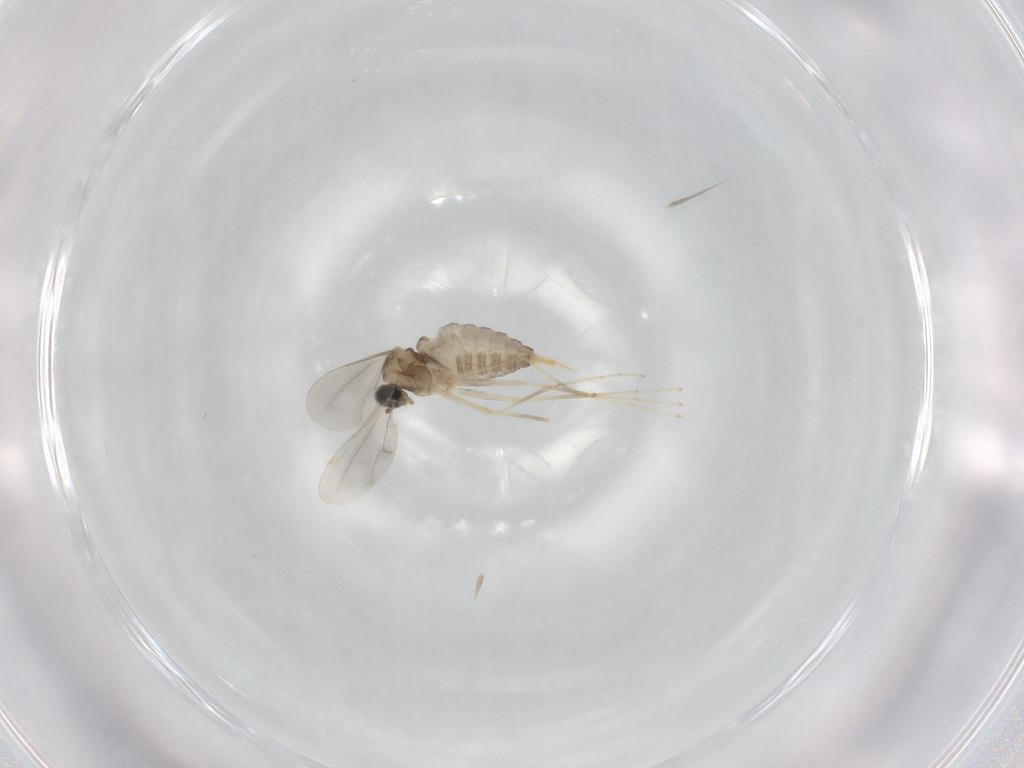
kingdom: Animalia
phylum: Arthropoda
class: Insecta
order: Diptera
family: Cecidomyiidae
